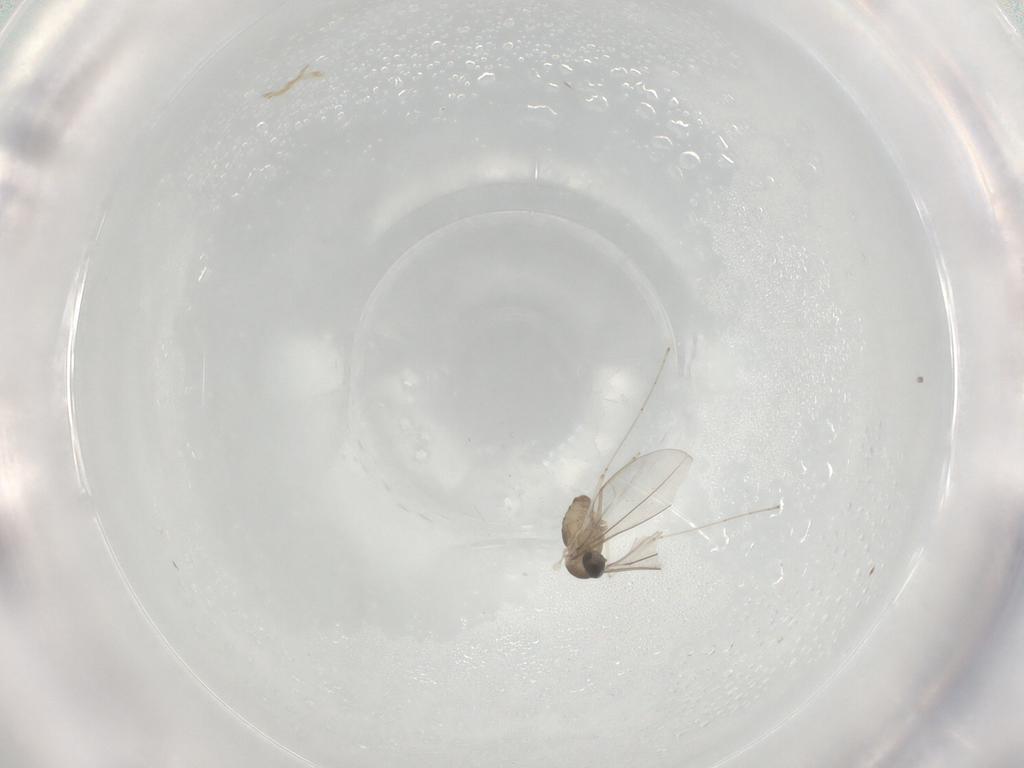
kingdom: Animalia
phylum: Arthropoda
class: Insecta
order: Diptera
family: Cecidomyiidae
